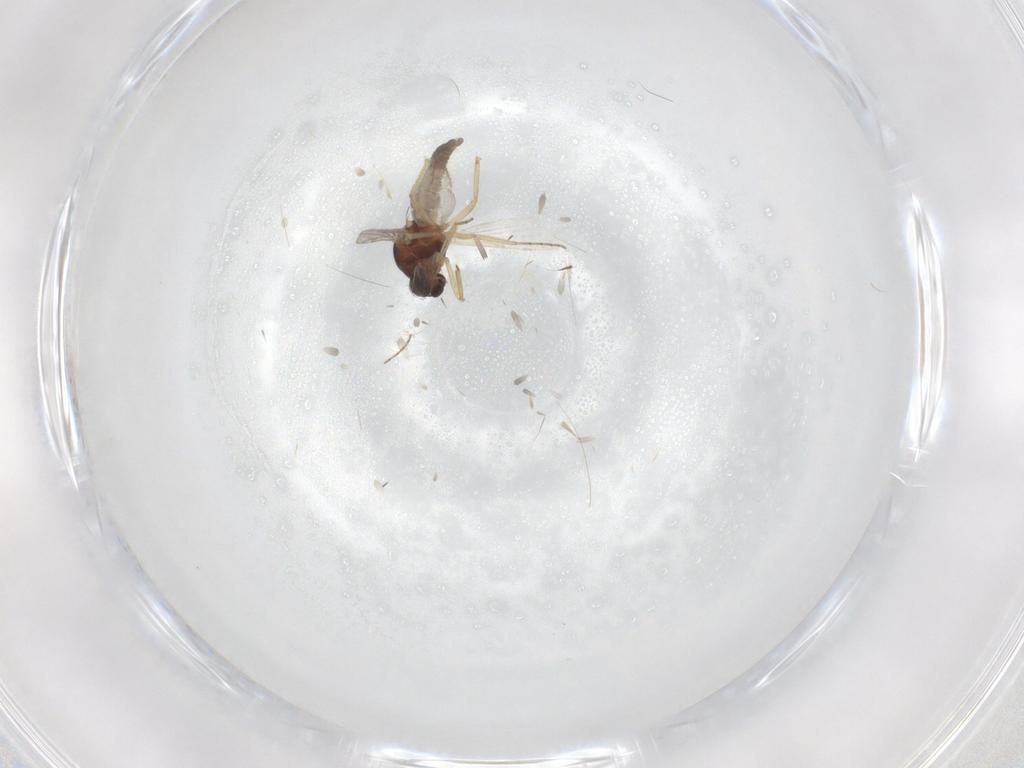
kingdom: Animalia
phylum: Arthropoda
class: Insecta
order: Diptera
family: Ceratopogonidae
